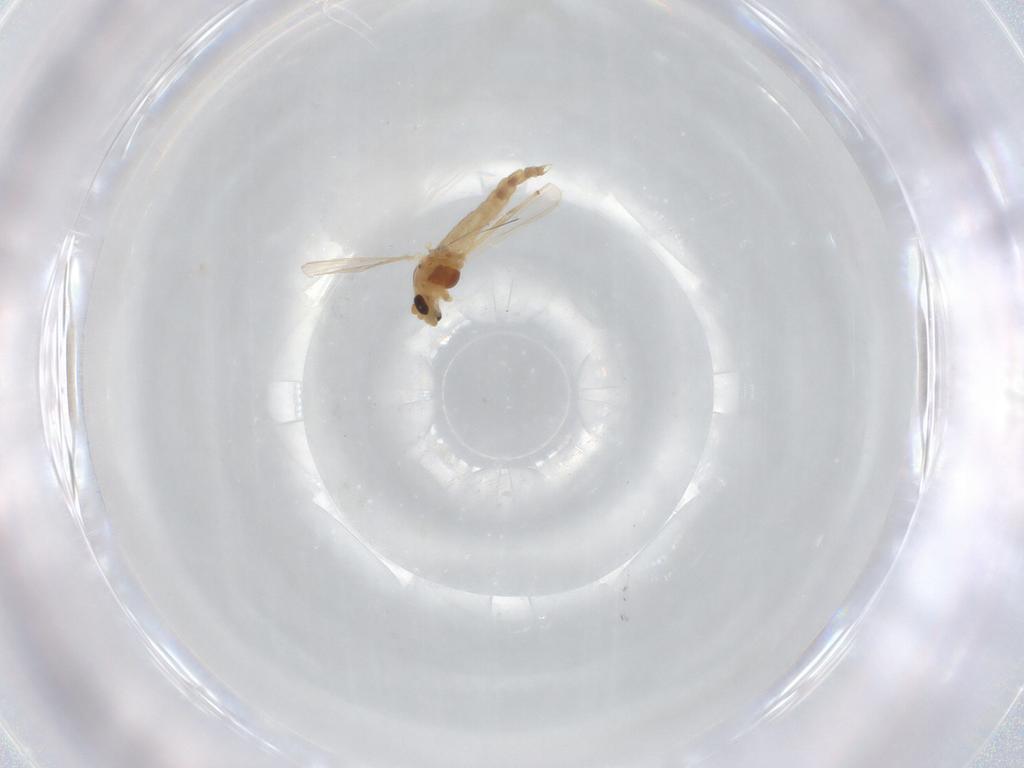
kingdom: Animalia
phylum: Arthropoda
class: Insecta
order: Diptera
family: Chironomidae
